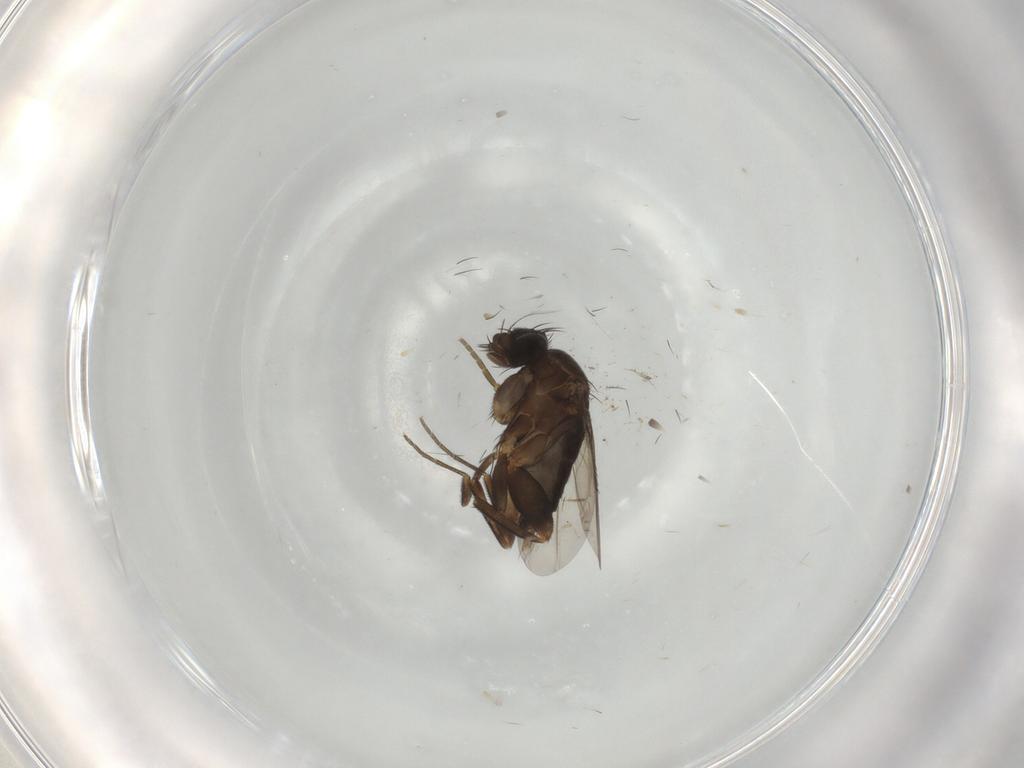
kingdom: Animalia
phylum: Arthropoda
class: Insecta
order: Diptera
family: Phoridae
